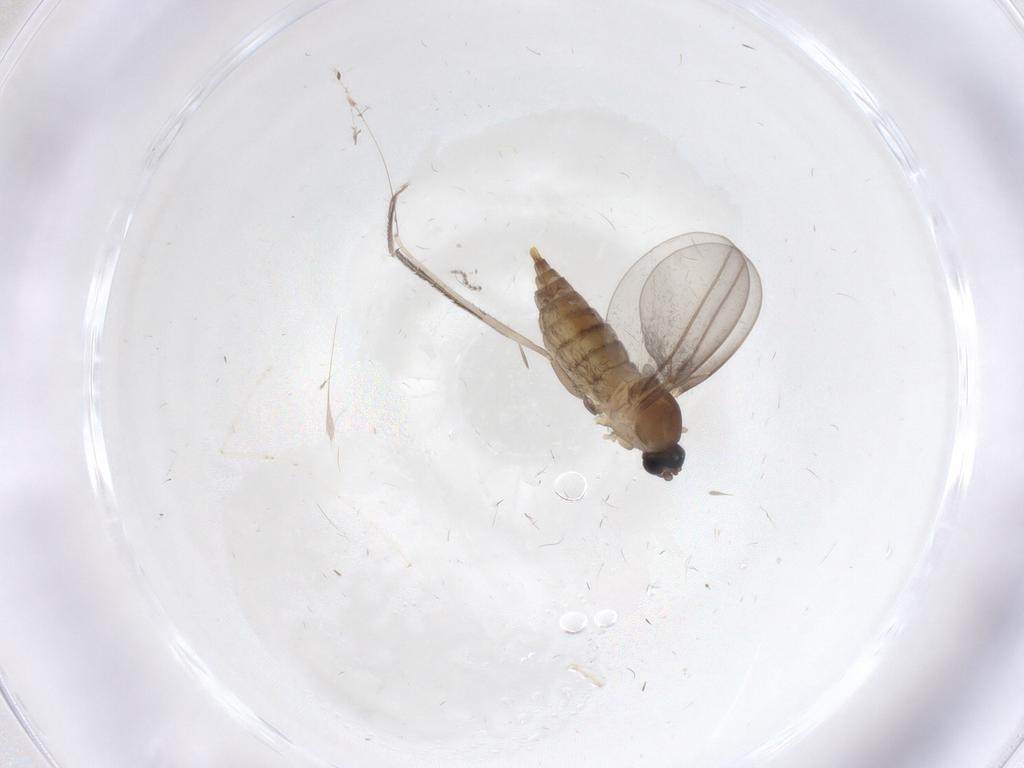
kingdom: Animalia
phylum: Arthropoda
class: Insecta
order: Diptera
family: Cecidomyiidae
